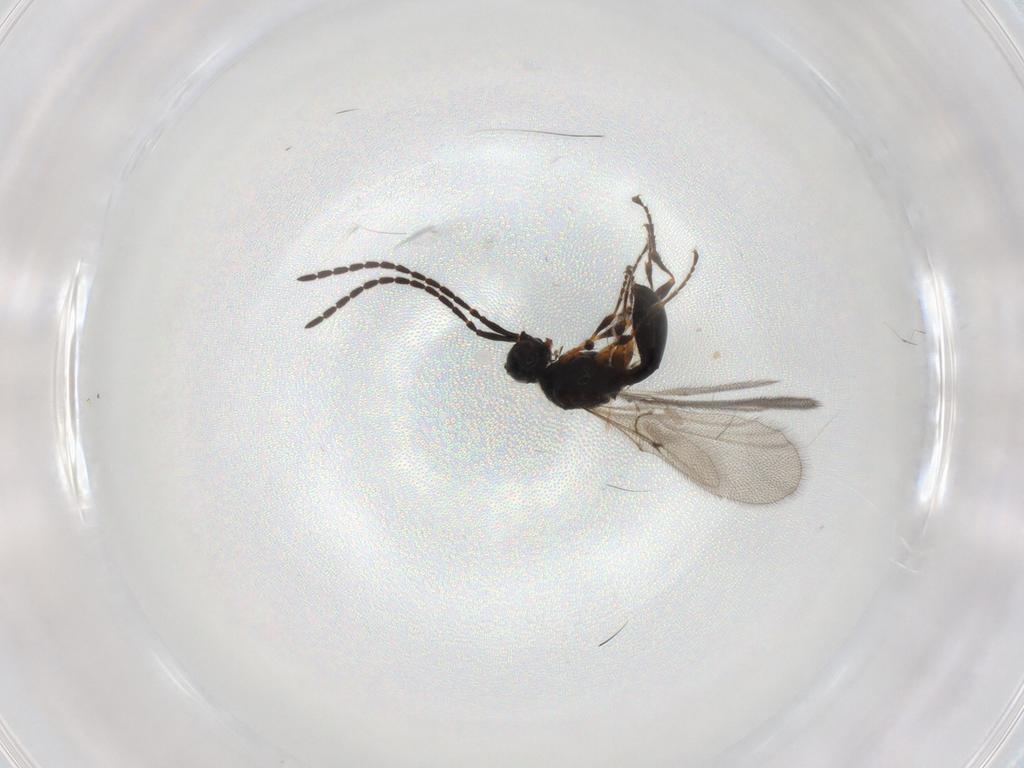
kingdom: Animalia
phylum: Arthropoda
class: Insecta
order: Hymenoptera
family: Diapriidae
